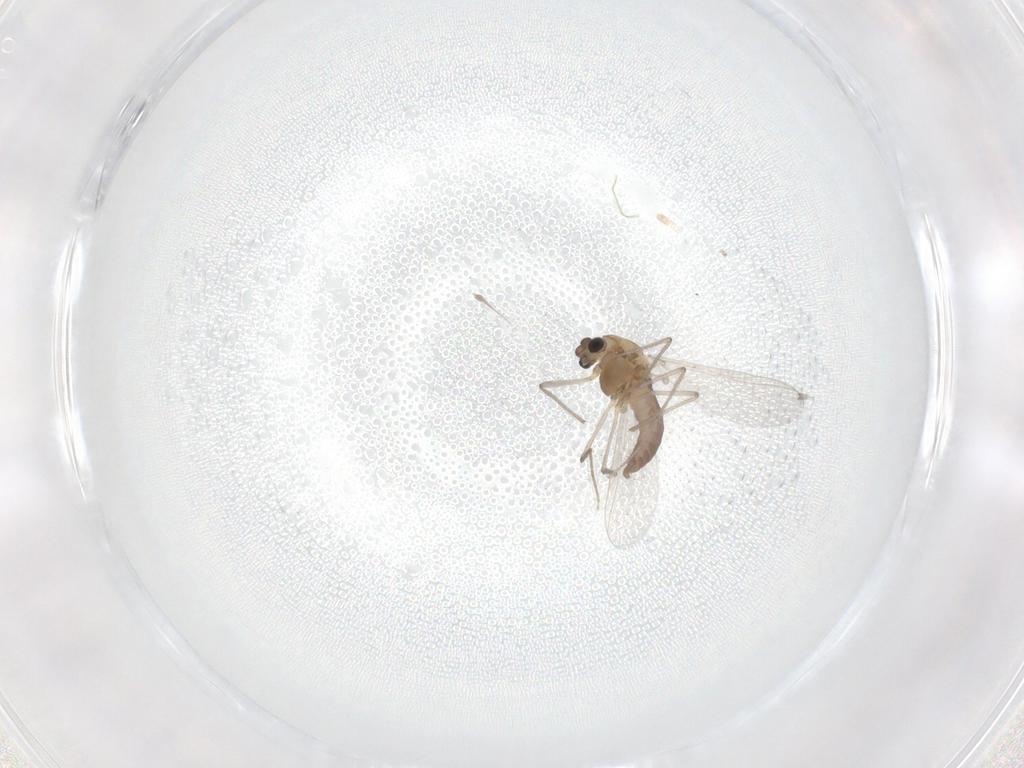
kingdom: Animalia
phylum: Arthropoda
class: Insecta
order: Diptera
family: Chironomidae
